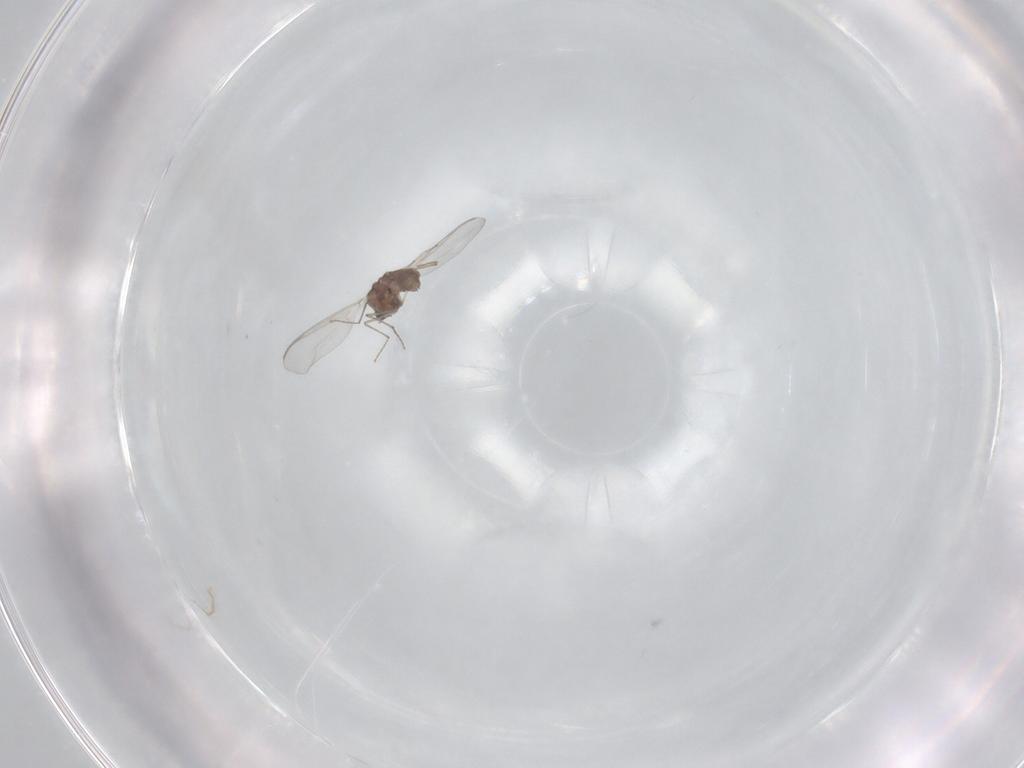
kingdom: Animalia
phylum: Arthropoda
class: Insecta
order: Diptera
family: Chironomidae
